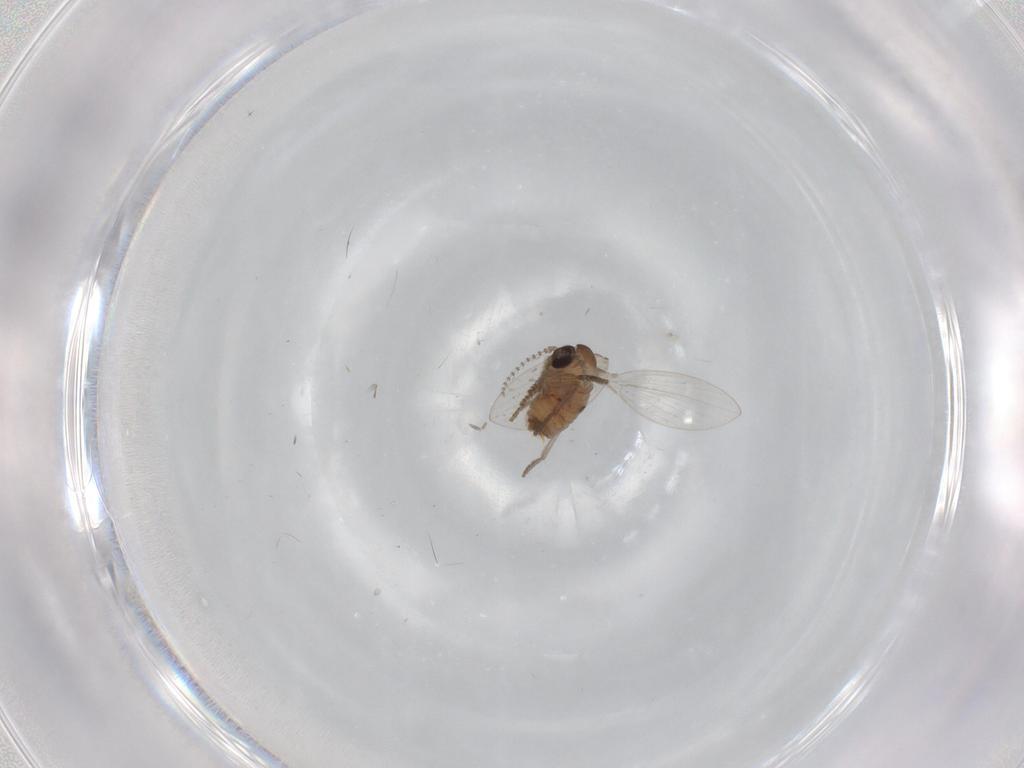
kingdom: Animalia
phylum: Arthropoda
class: Insecta
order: Diptera
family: Psychodidae
